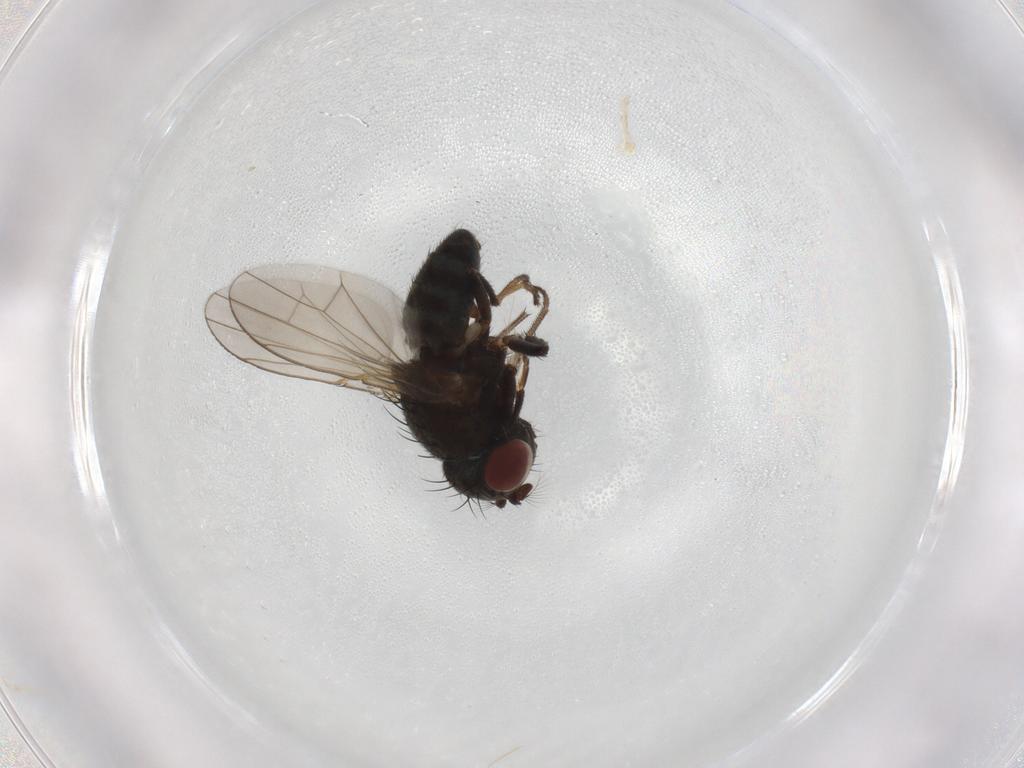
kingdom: Animalia
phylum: Arthropoda
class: Insecta
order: Diptera
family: Ephydridae
